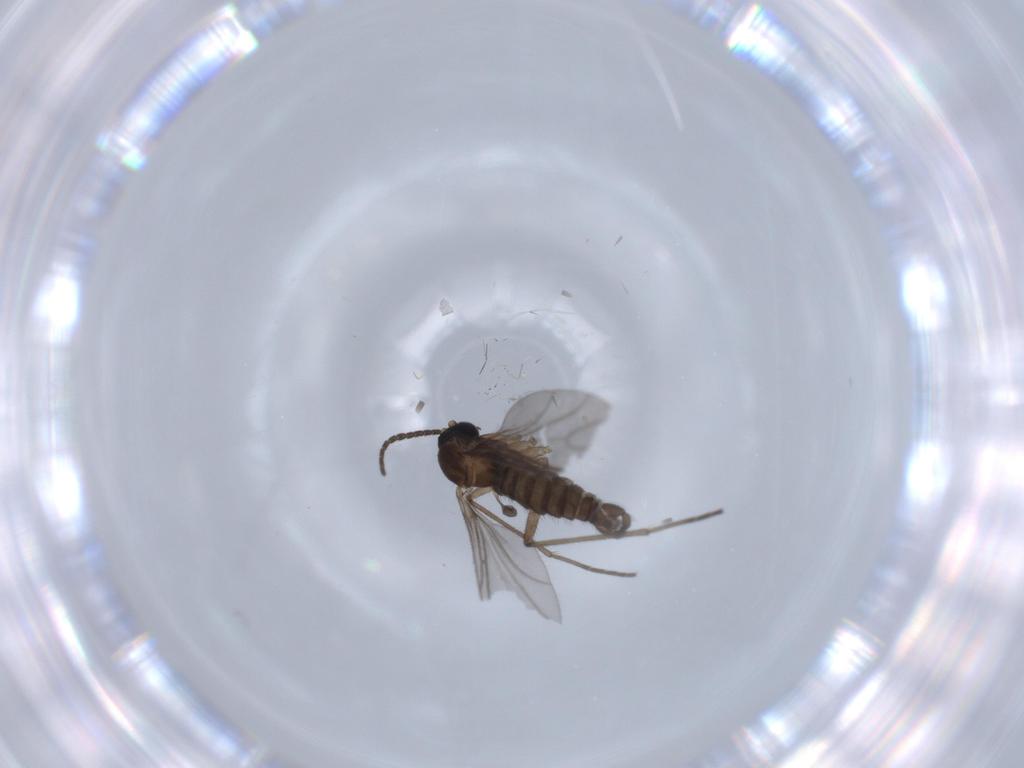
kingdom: Animalia
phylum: Arthropoda
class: Insecta
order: Diptera
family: Sciaridae
